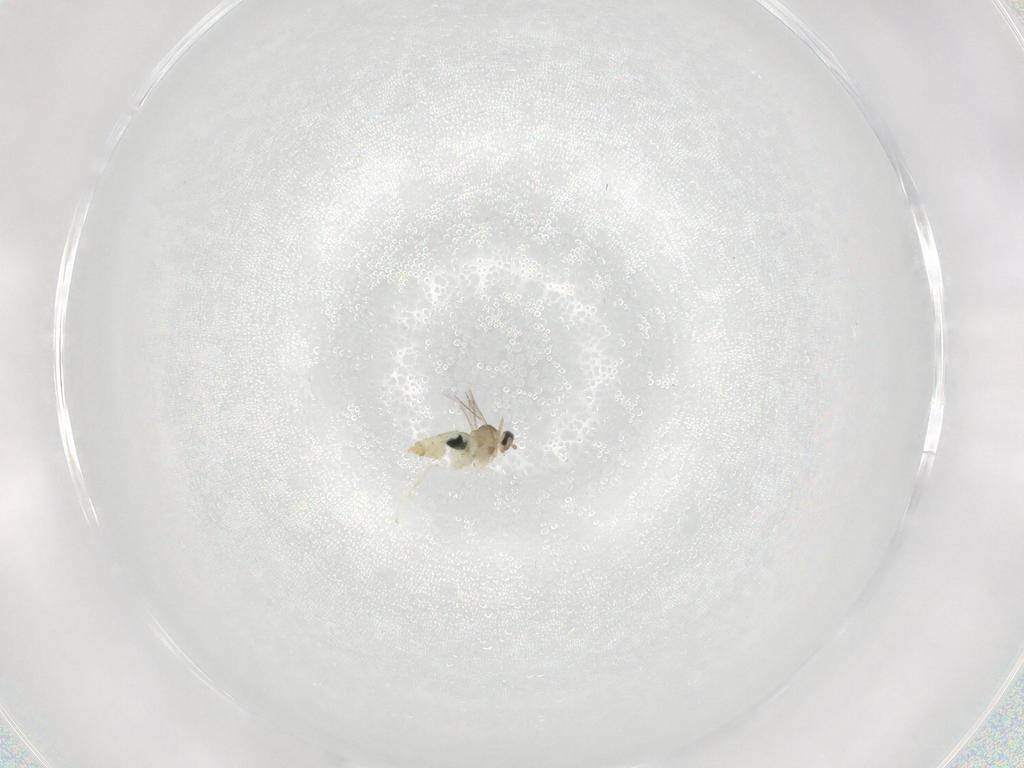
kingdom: Animalia
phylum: Arthropoda
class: Insecta
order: Diptera
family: Cecidomyiidae
